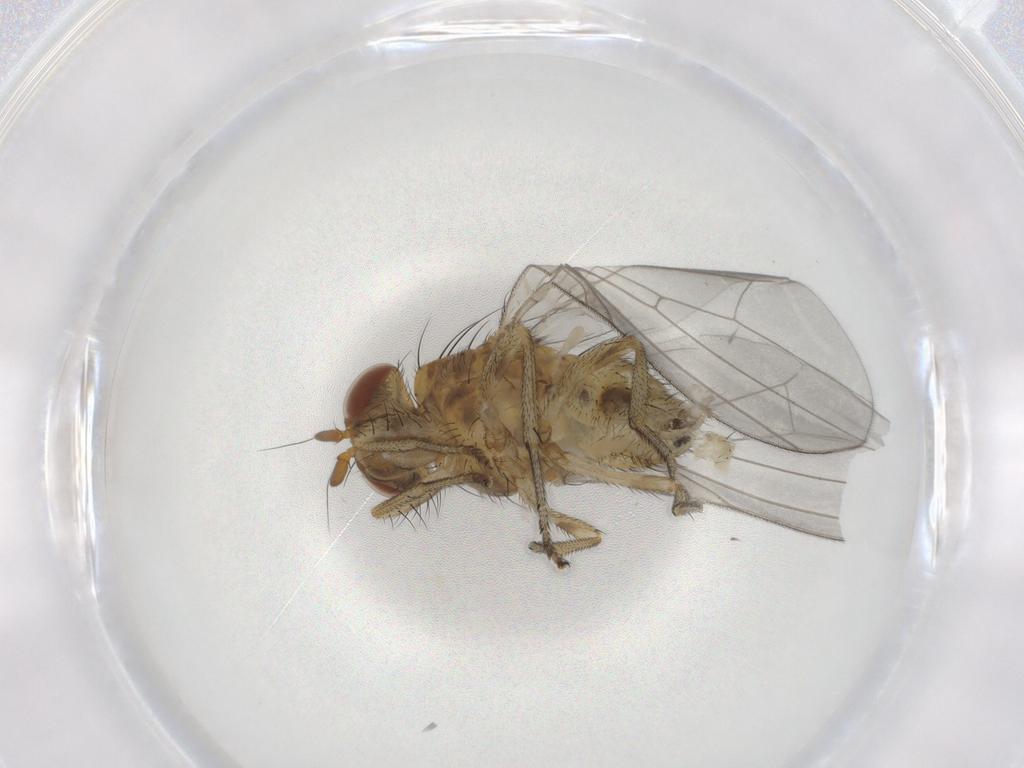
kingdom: Animalia
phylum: Arthropoda
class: Insecta
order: Diptera
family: Lauxaniidae
